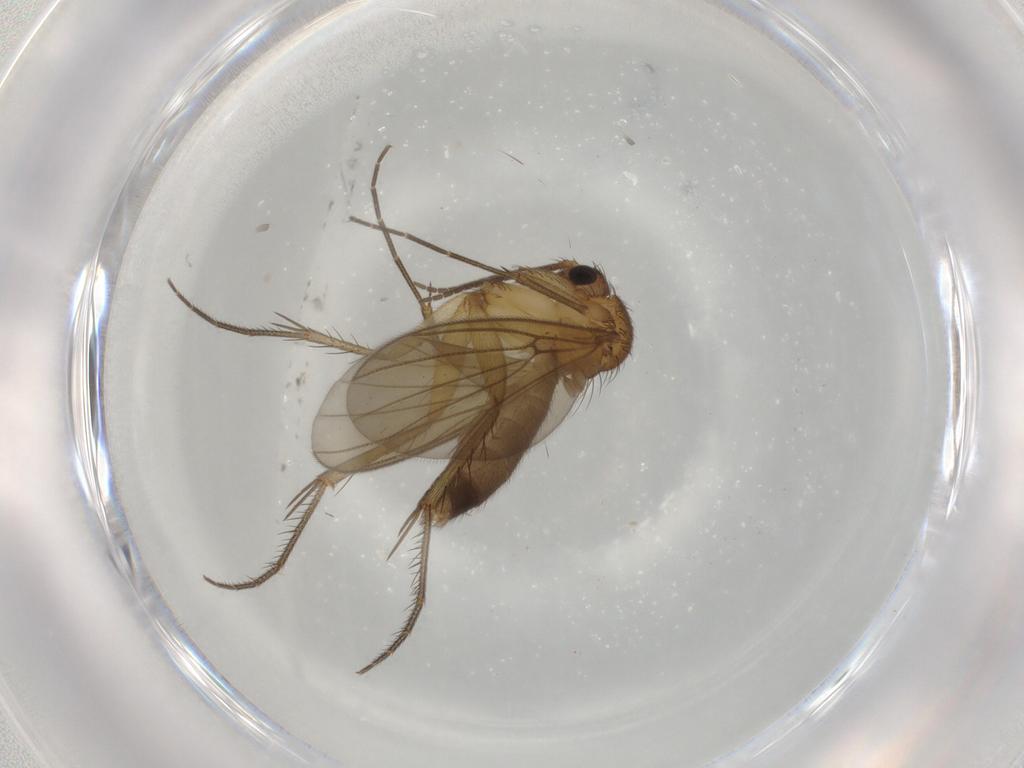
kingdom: Animalia
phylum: Arthropoda
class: Insecta
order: Diptera
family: Mycetophilidae
